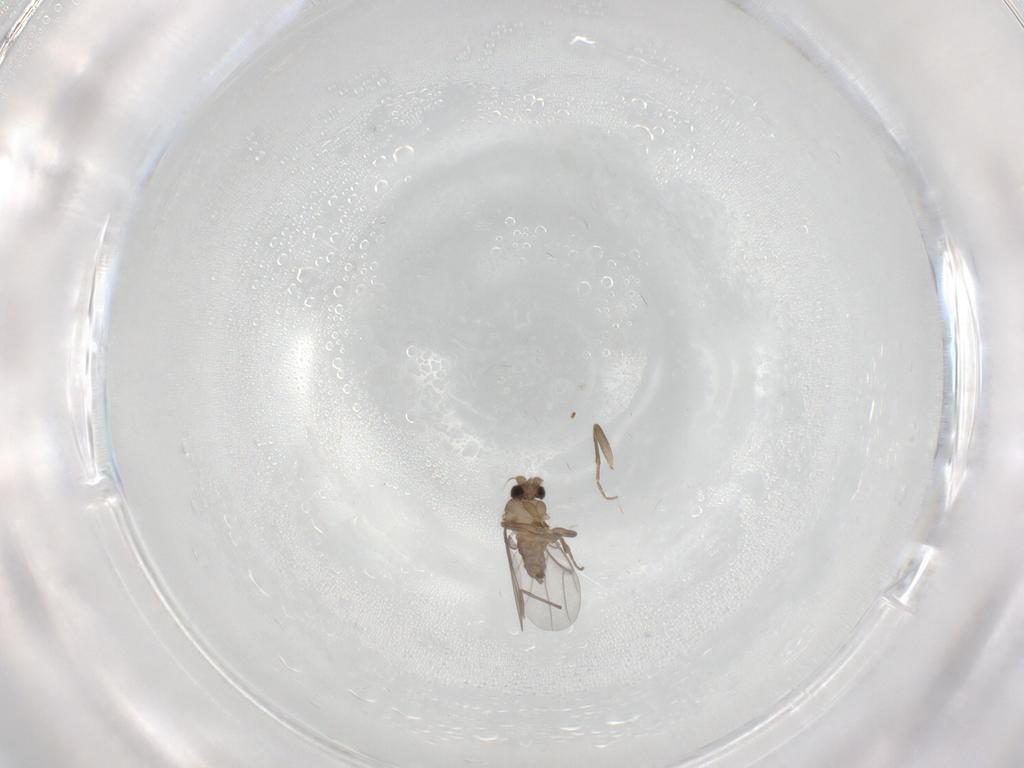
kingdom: Animalia
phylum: Arthropoda
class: Insecta
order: Diptera
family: Phoridae
